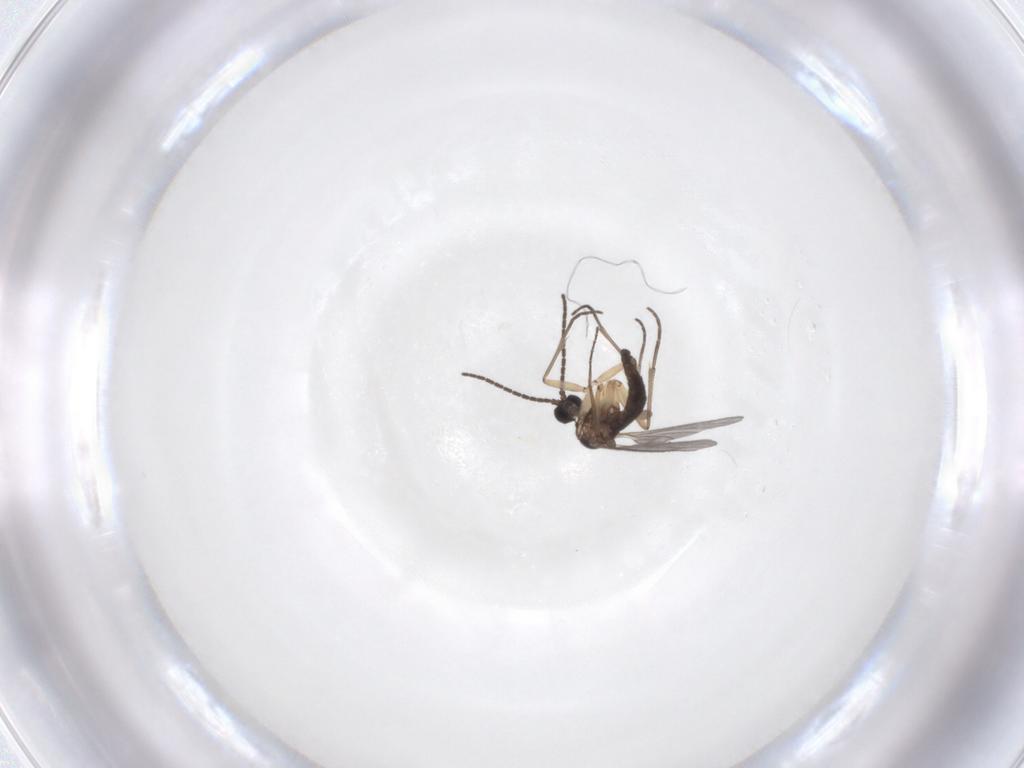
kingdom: Animalia
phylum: Arthropoda
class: Insecta
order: Diptera
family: Sciaridae
